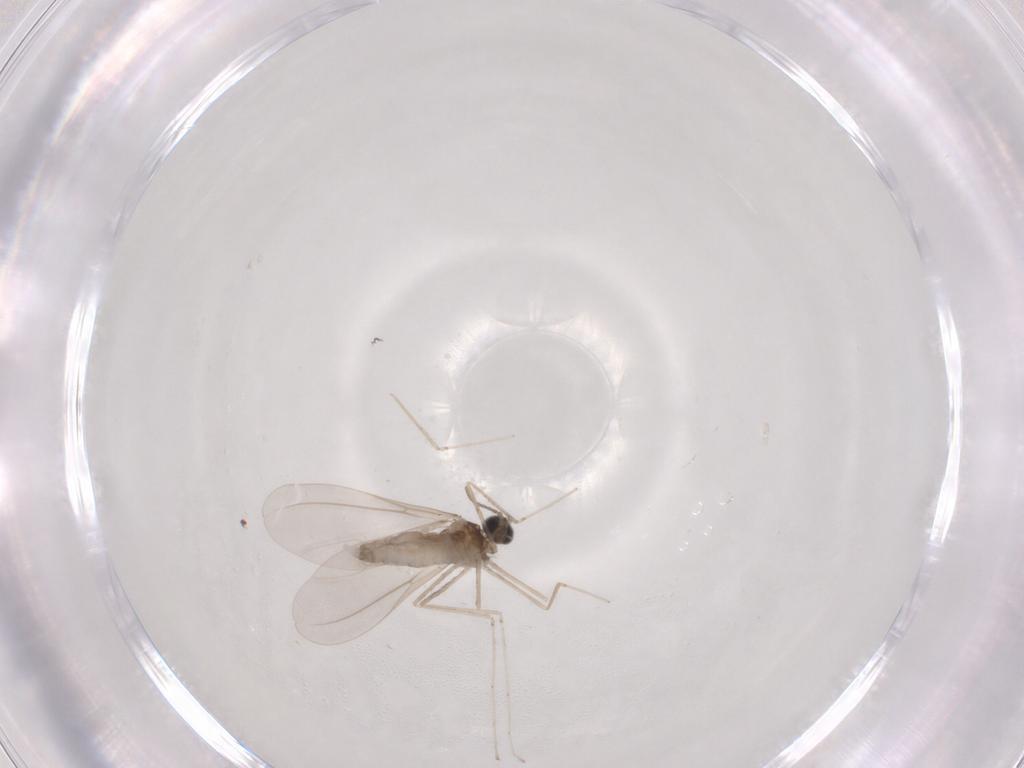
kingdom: Animalia
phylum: Arthropoda
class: Insecta
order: Diptera
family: Cecidomyiidae
